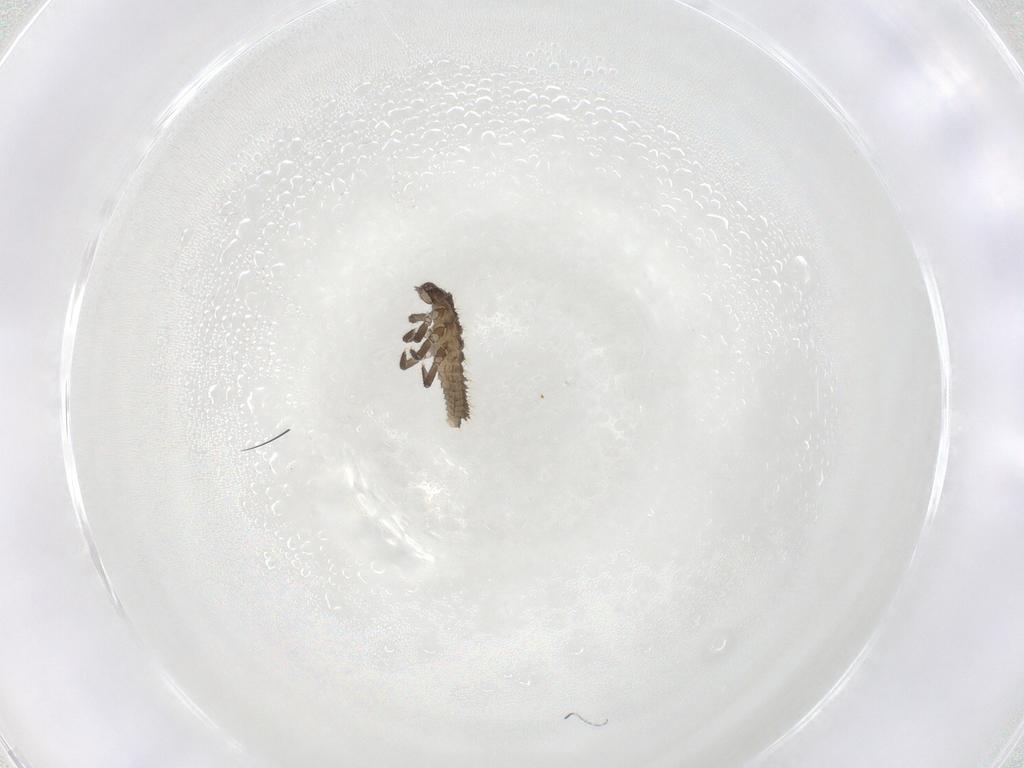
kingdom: Animalia
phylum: Arthropoda
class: Insecta
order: Coleoptera
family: Coccinellidae
